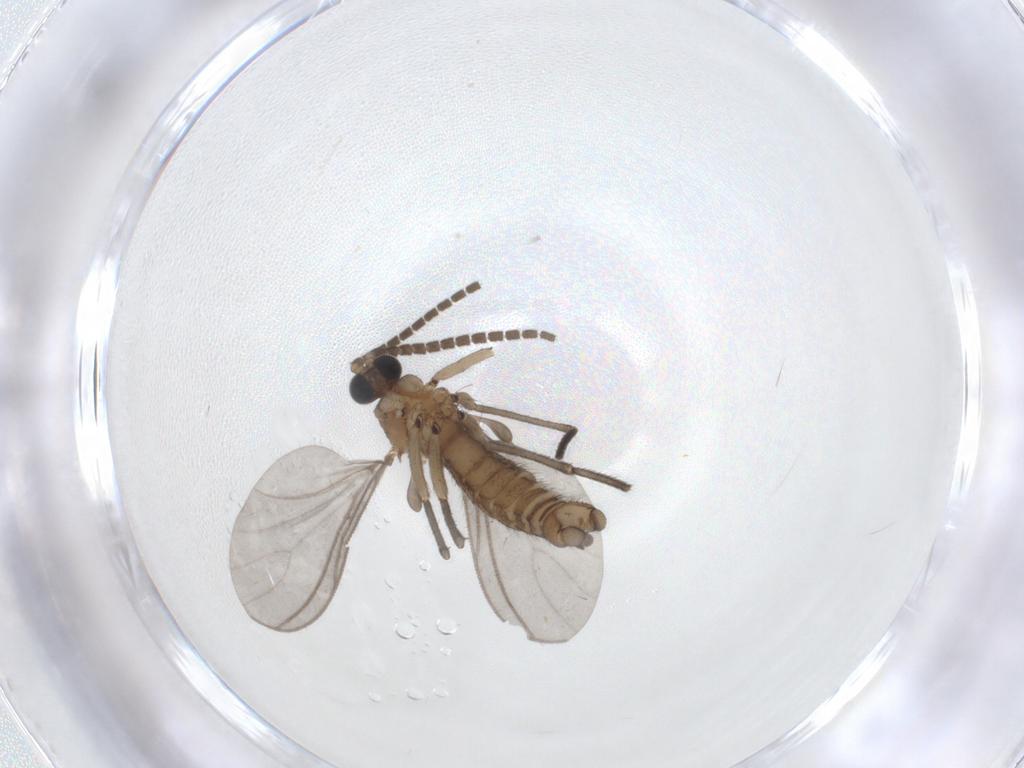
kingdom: Animalia
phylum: Arthropoda
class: Insecta
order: Diptera
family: Sciaridae
